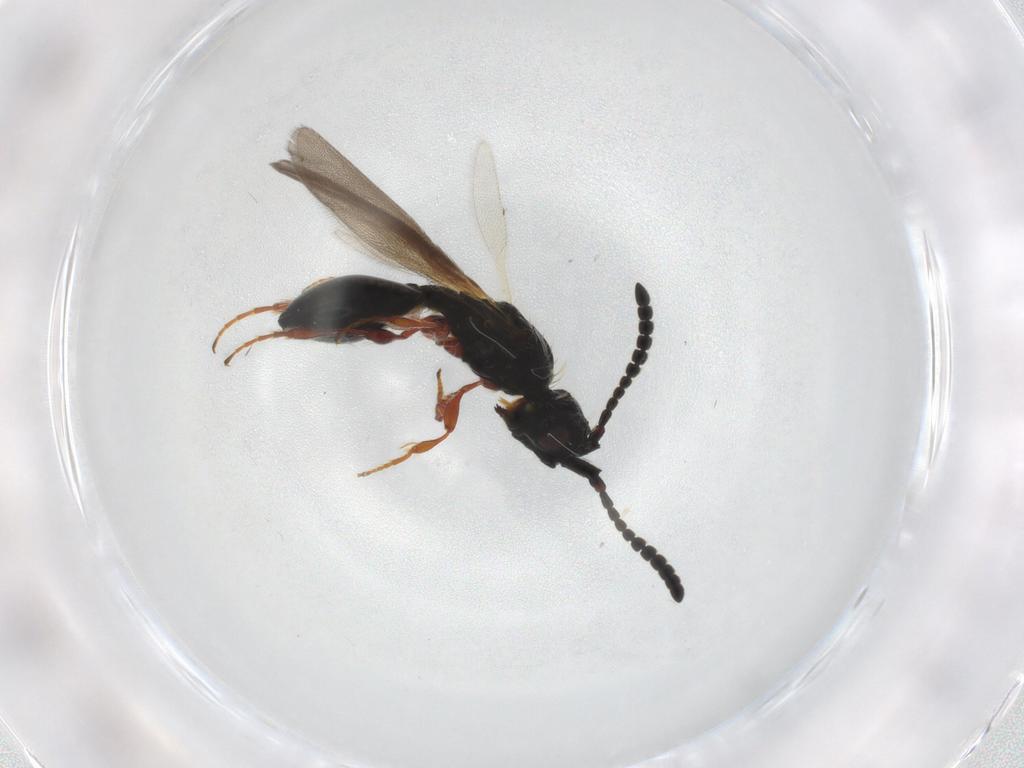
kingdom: Animalia
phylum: Arthropoda
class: Insecta
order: Hymenoptera
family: Diapriidae
